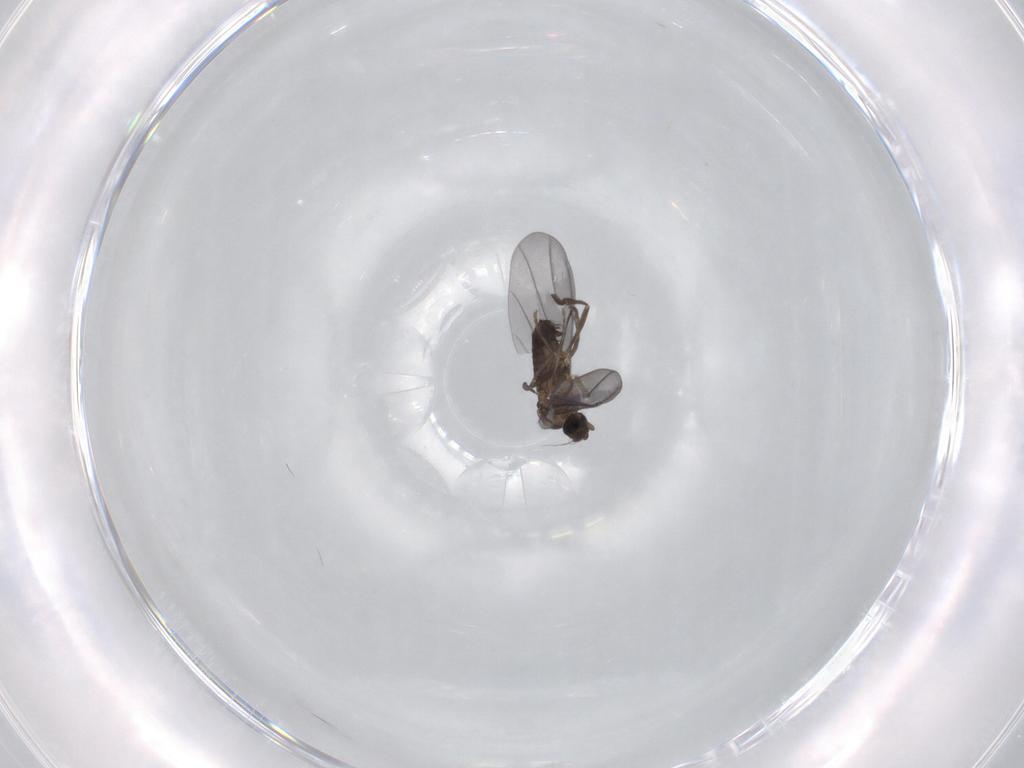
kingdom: Animalia
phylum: Arthropoda
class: Insecta
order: Diptera
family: Phoridae
